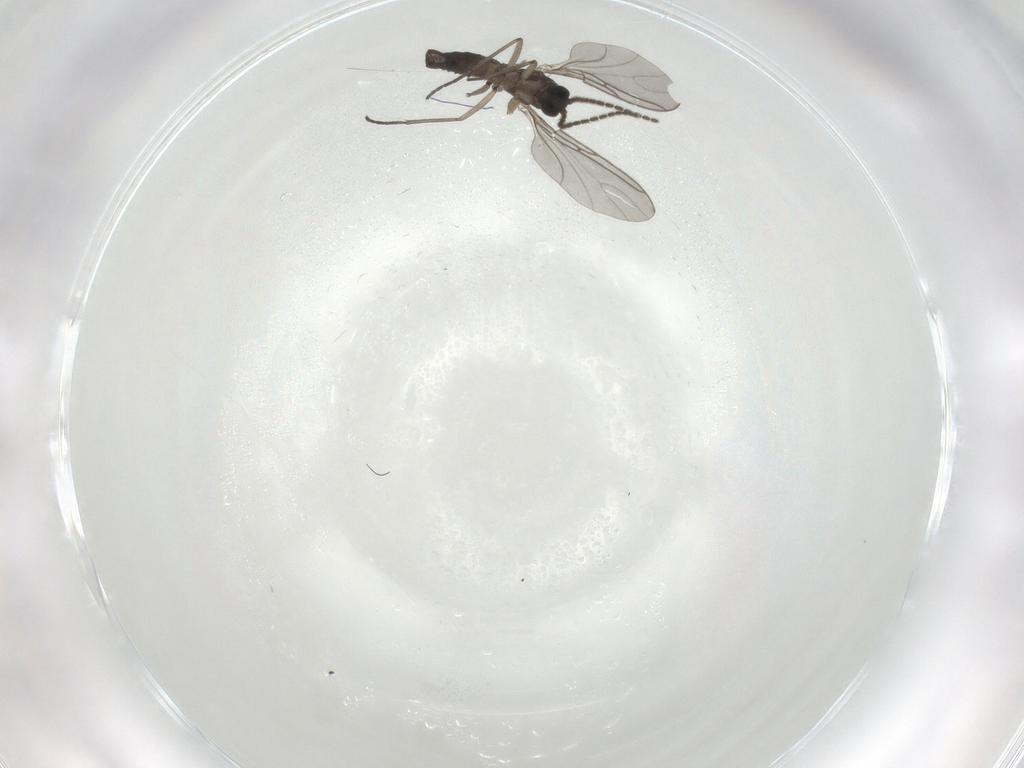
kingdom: Animalia
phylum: Arthropoda
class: Insecta
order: Diptera
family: Sciaridae
